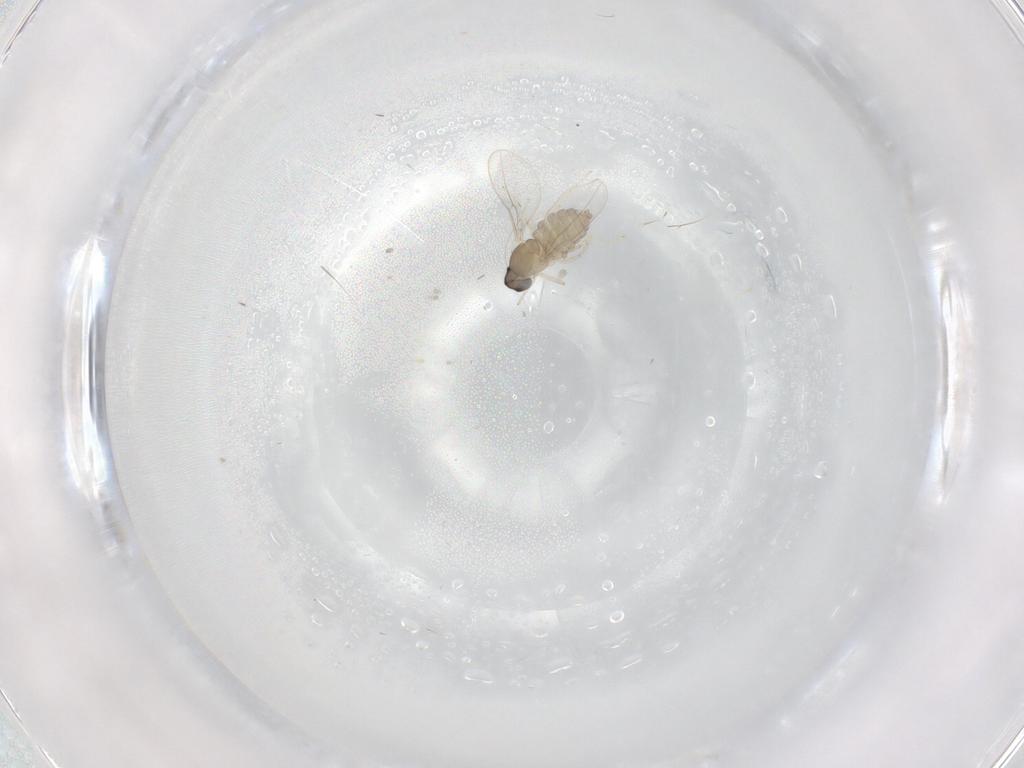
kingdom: Animalia
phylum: Arthropoda
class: Insecta
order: Diptera
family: Cecidomyiidae
